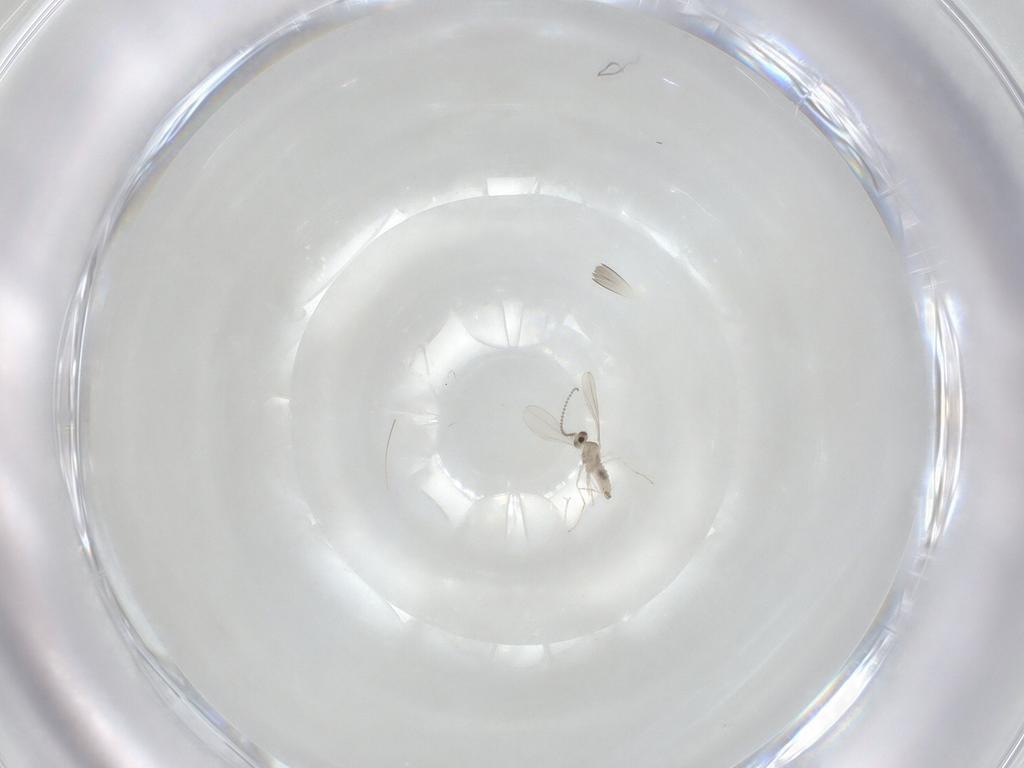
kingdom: Animalia
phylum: Arthropoda
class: Insecta
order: Diptera
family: Cecidomyiidae
